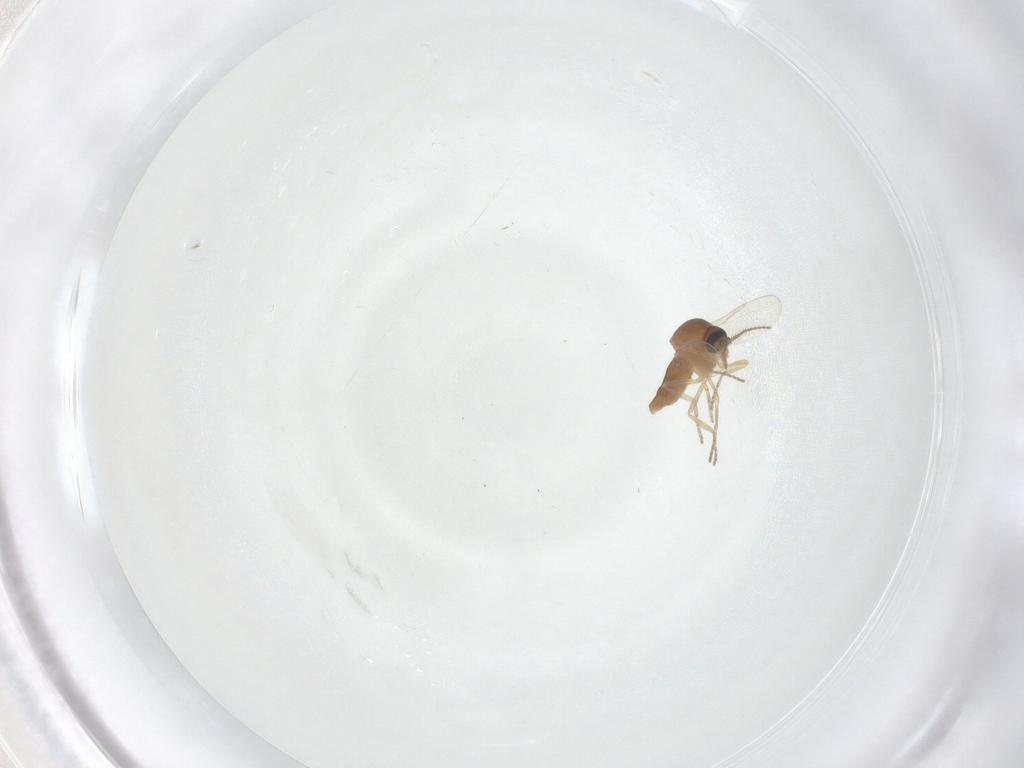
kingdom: Animalia
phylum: Arthropoda
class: Insecta
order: Diptera
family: Ceratopogonidae
